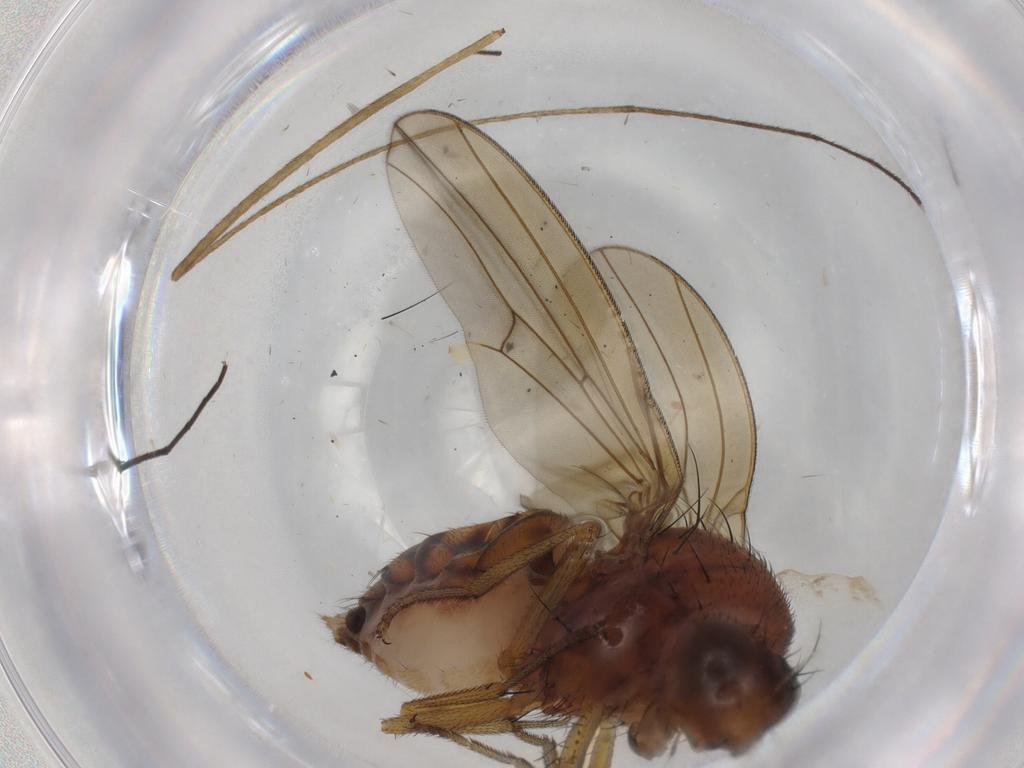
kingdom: Animalia
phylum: Arthropoda
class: Insecta
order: Diptera
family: Lauxaniidae
